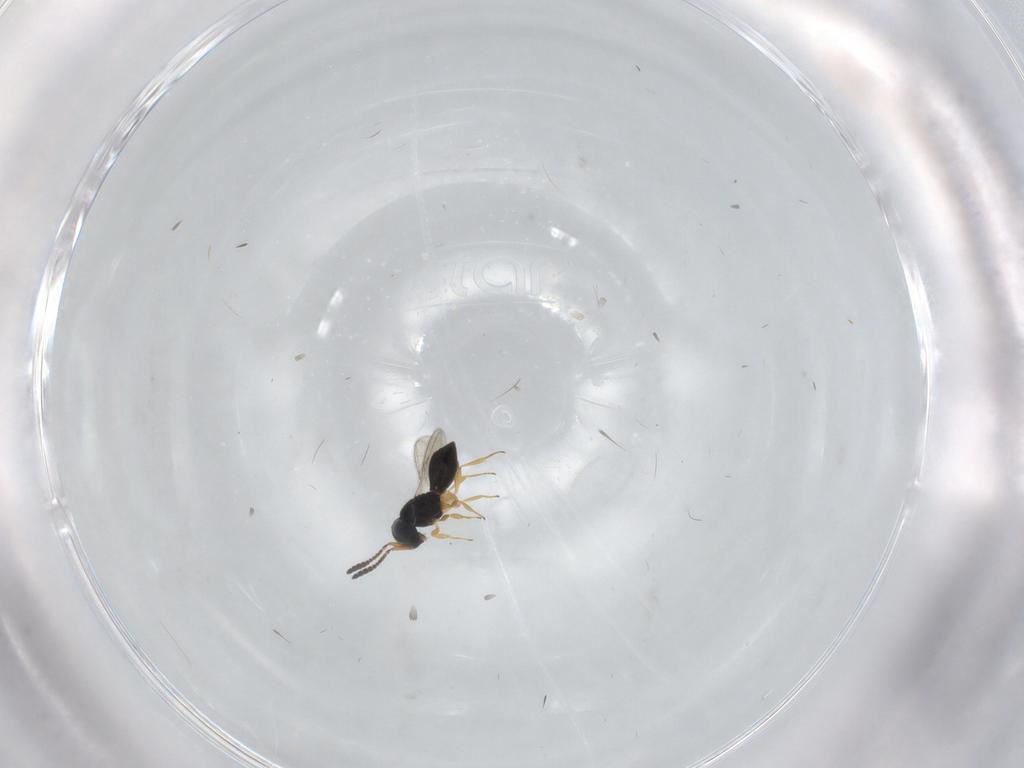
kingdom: Animalia
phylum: Arthropoda
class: Insecta
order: Hymenoptera
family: Scelionidae
